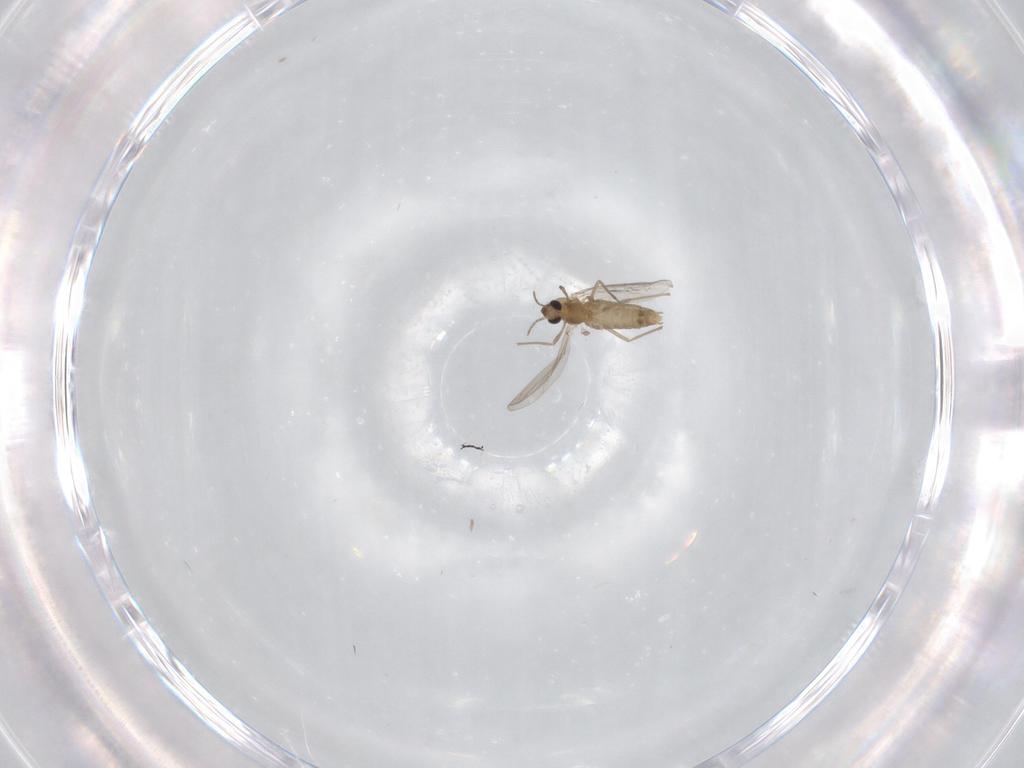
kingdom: Animalia
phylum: Arthropoda
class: Insecta
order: Diptera
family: Chironomidae
